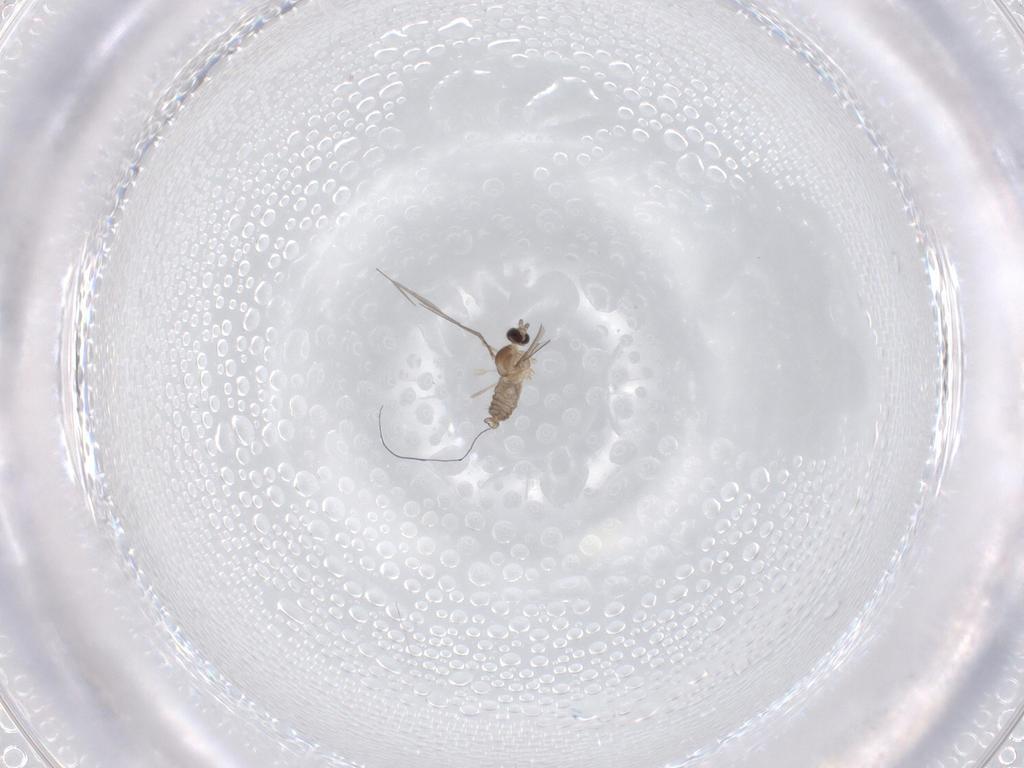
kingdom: Animalia
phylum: Arthropoda
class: Insecta
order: Diptera
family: Cecidomyiidae
